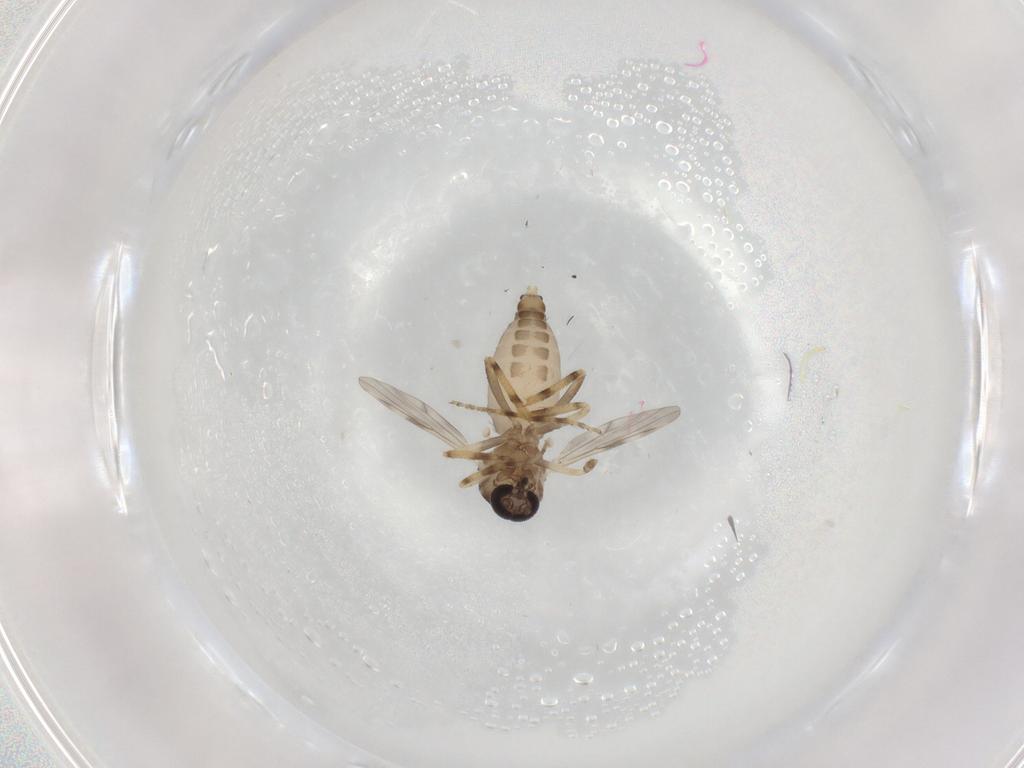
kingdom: Animalia
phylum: Arthropoda
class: Insecta
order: Diptera
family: Ceratopogonidae
